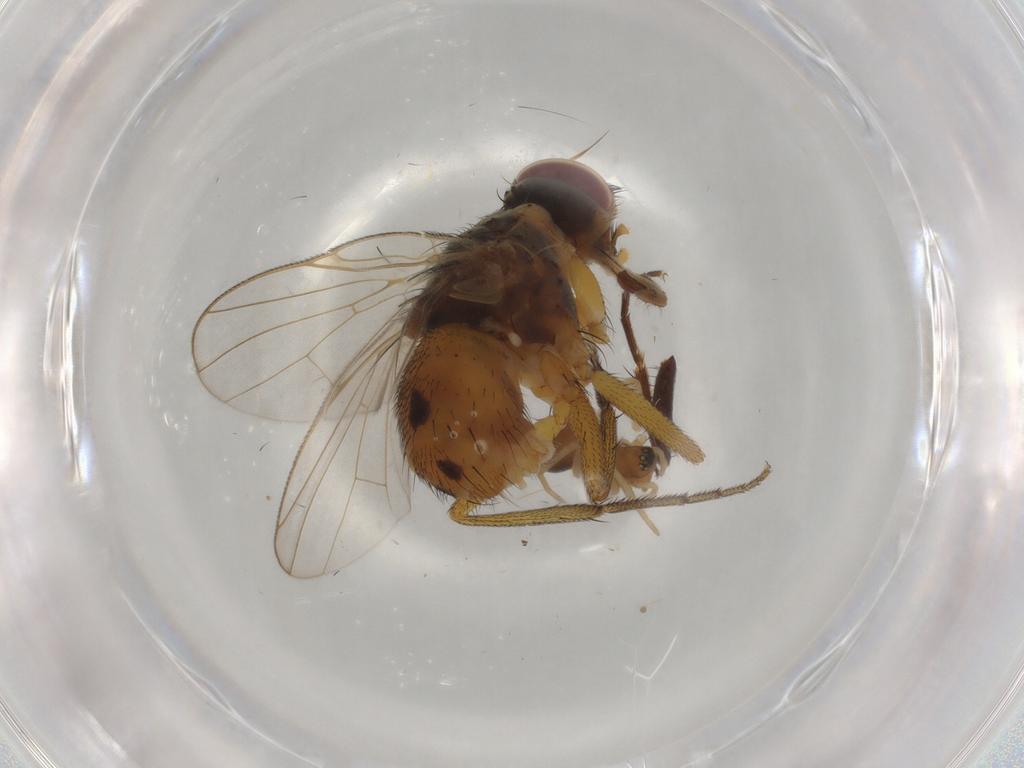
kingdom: Animalia
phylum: Arthropoda
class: Insecta
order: Diptera
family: Muscidae
